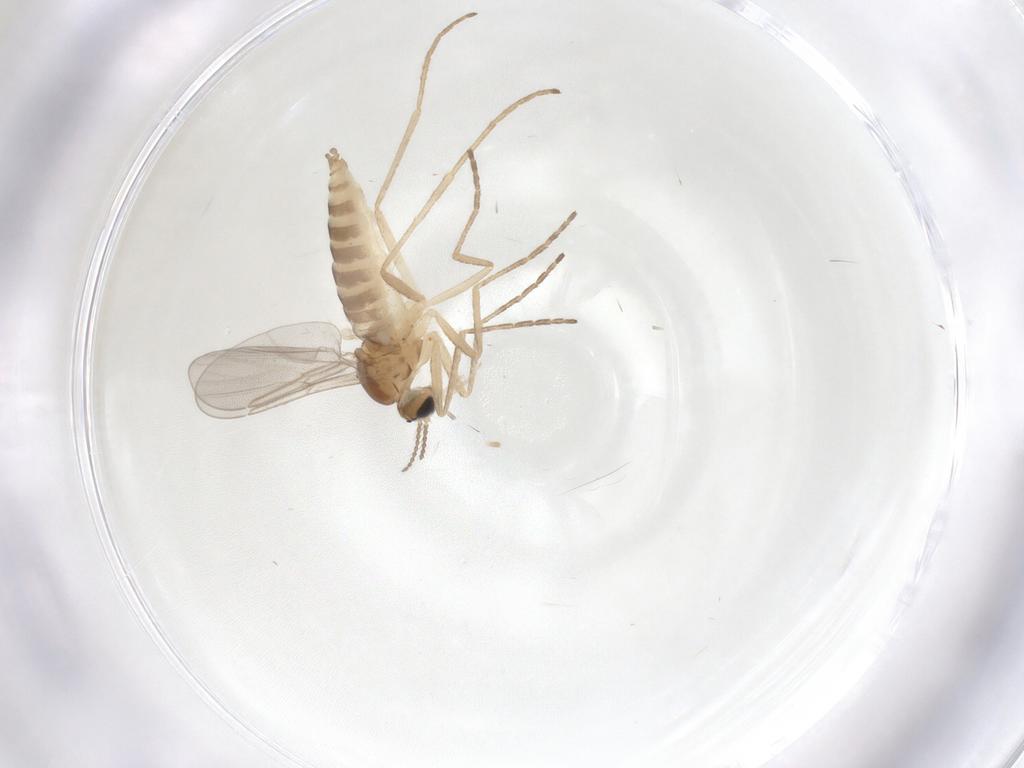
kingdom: Animalia
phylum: Arthropoda
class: Insecta
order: Diptera
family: Cecidomyiidae
